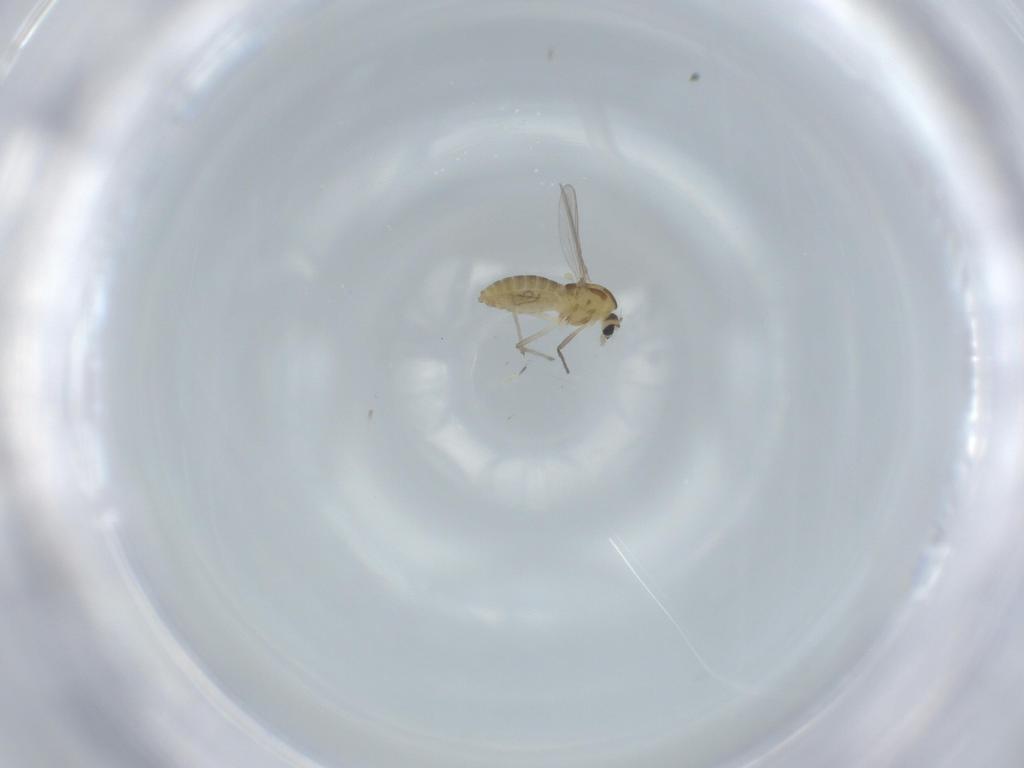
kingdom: Animalia
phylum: Arthropoda
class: Insecta
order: Diptera
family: Chironomidae
